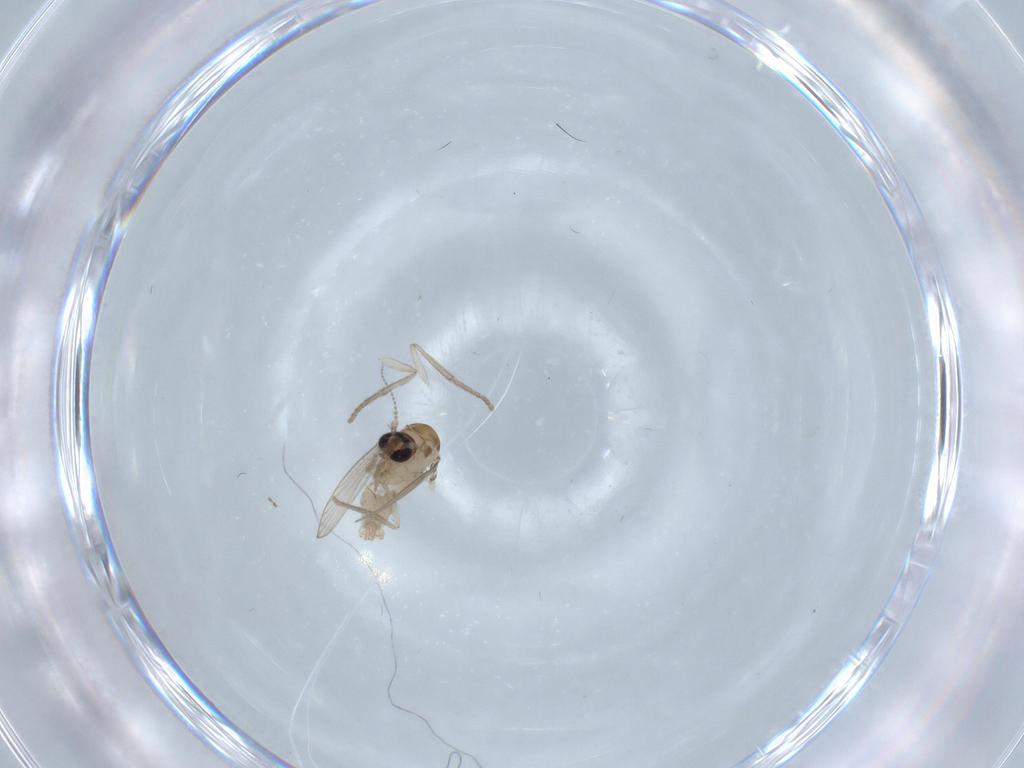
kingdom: Animalia
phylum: Arthropoda
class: Insecta
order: Diptera
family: Psychodidae
